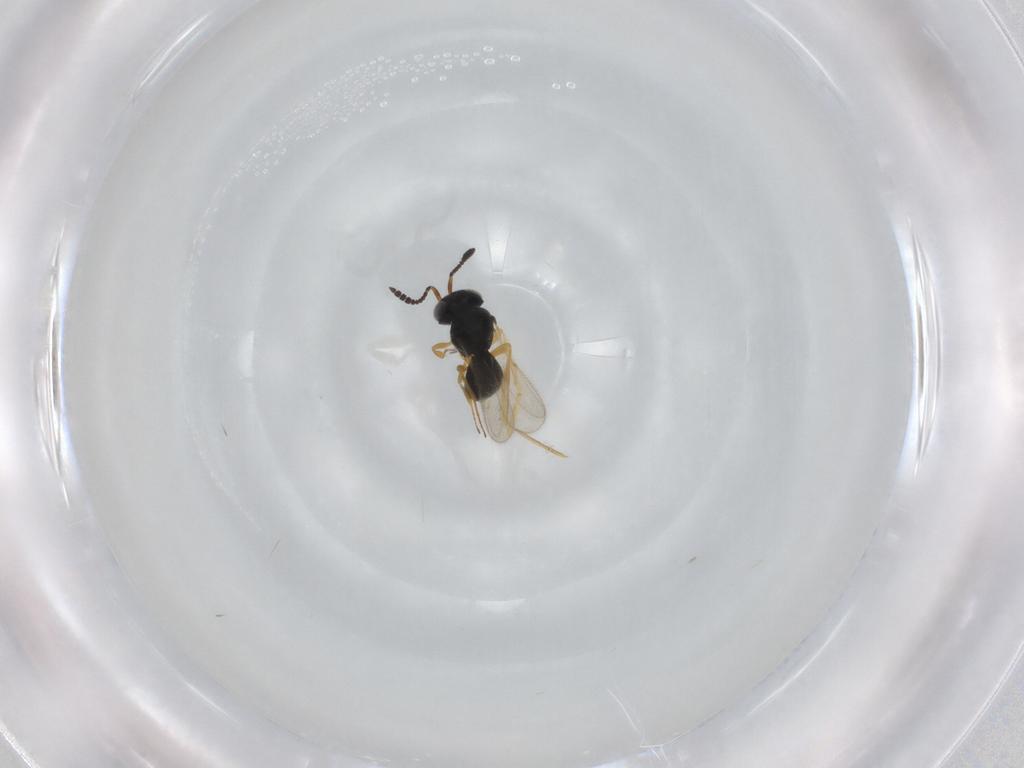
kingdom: Animalia
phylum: Arthropoda
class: Insecta
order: Hymenoptera
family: Scelionidae
